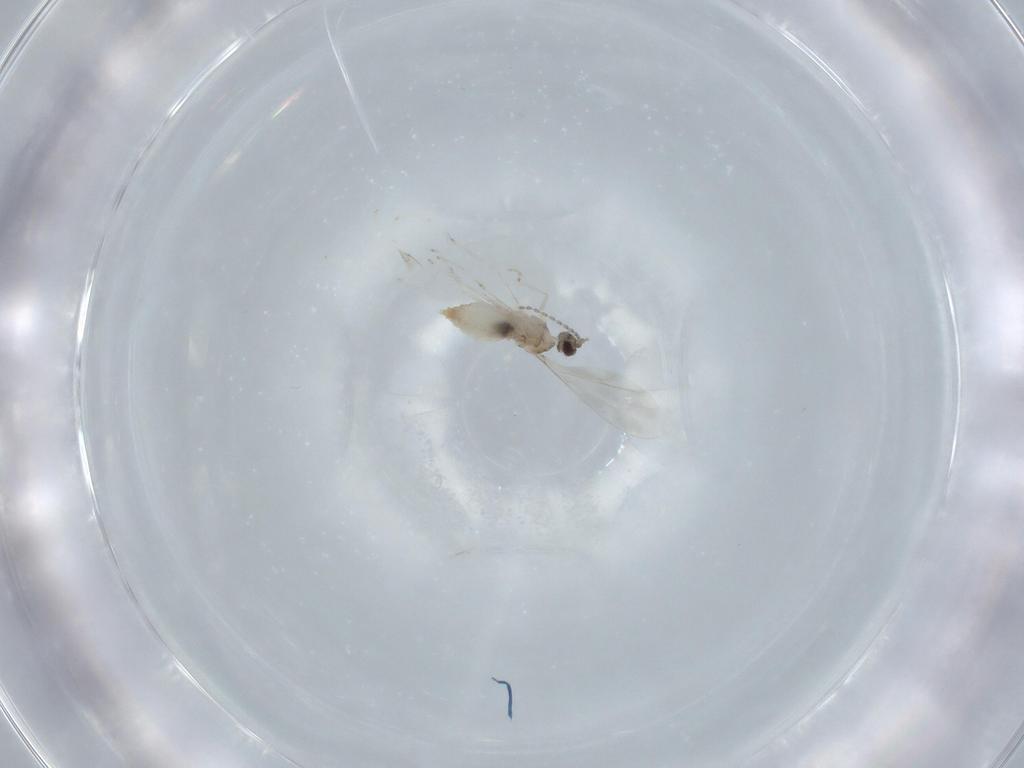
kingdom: Animalia
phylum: Arthropoda
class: Insecta
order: Diptera
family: Cecidomyiidae
